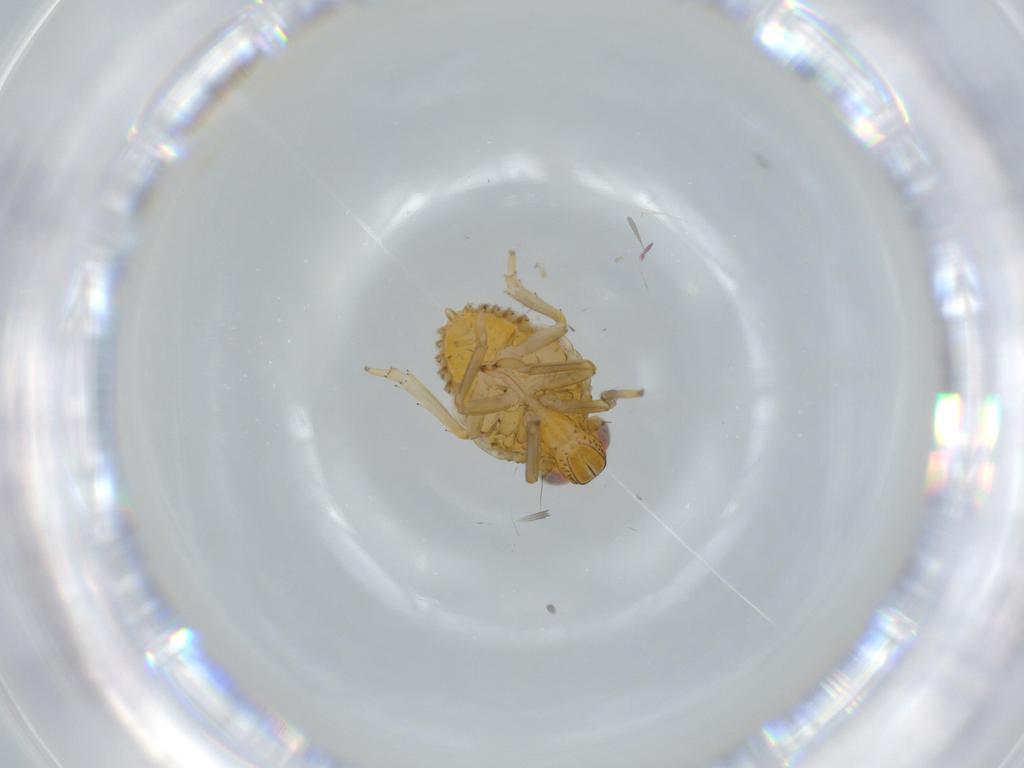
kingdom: Animalia
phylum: Arthropoda
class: Insecta
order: Hemiptera
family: Issidae
